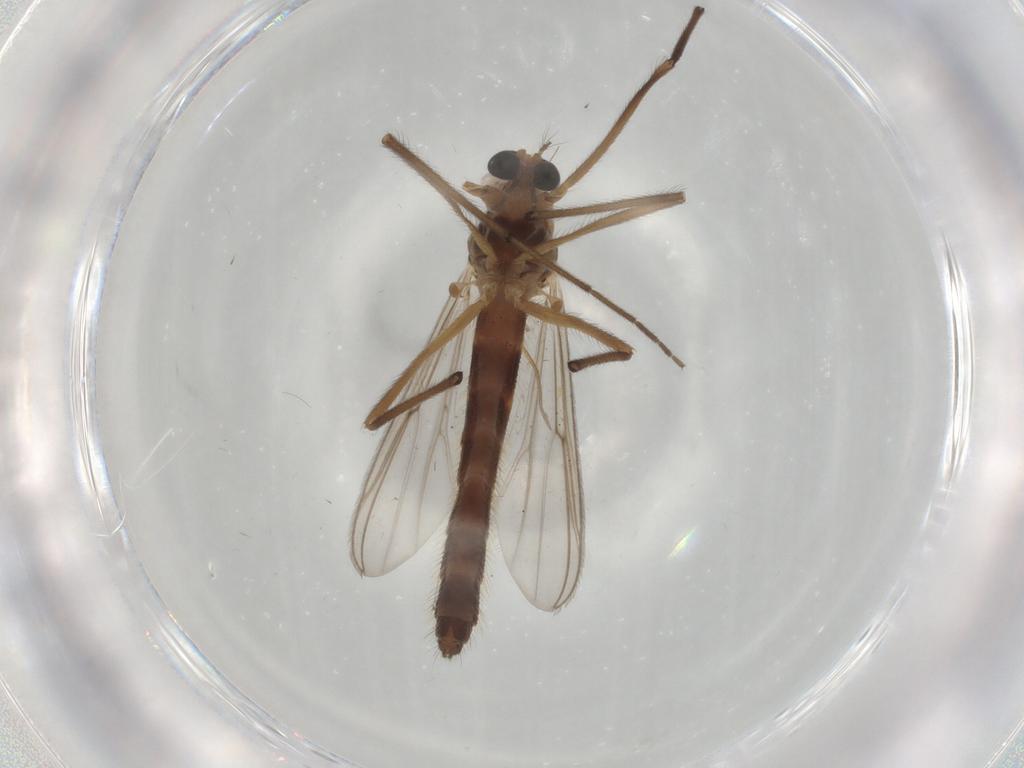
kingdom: Animalia
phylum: Arthropoda
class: Insecta
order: Diptera
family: Chironomidae
